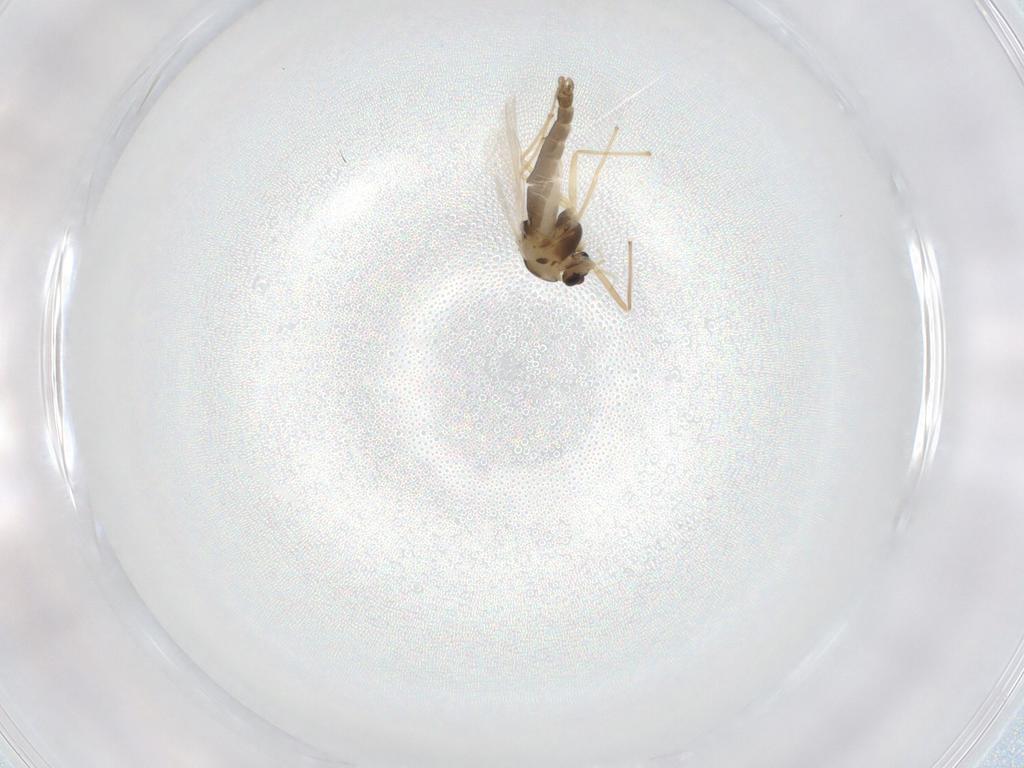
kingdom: Animalia
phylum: Arthropoda
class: Insecta
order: Diptera
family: Chironomidae
